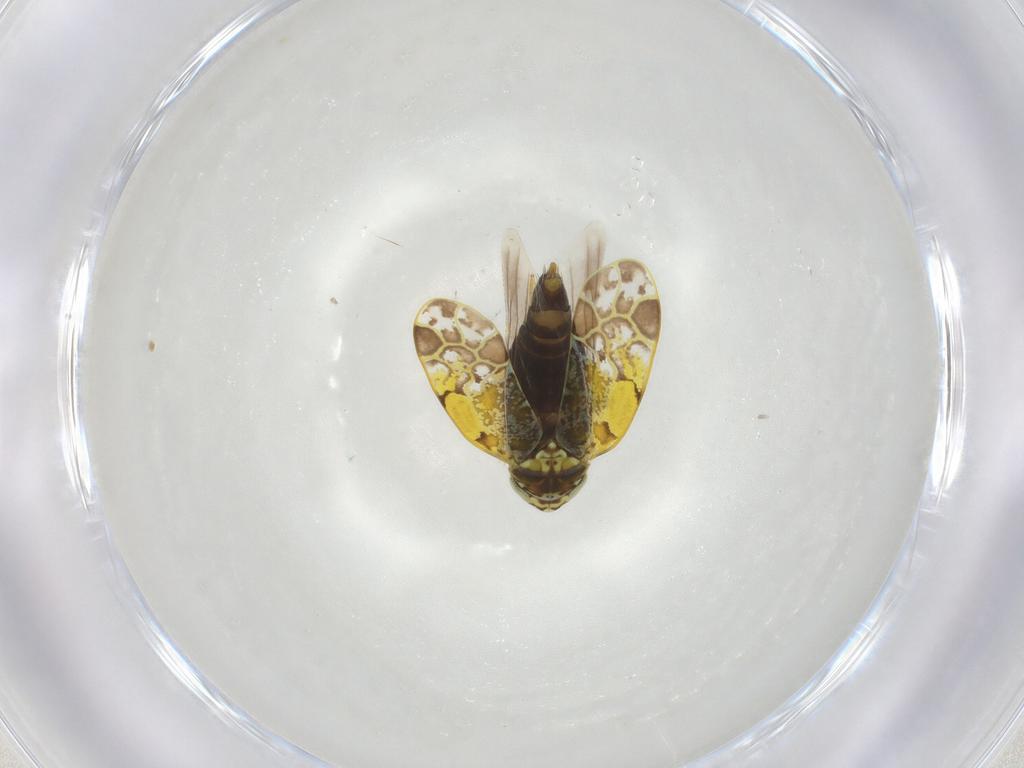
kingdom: Animalia
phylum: Arthropoda
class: Insecta
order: Hemiptera
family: Cicadellidae
